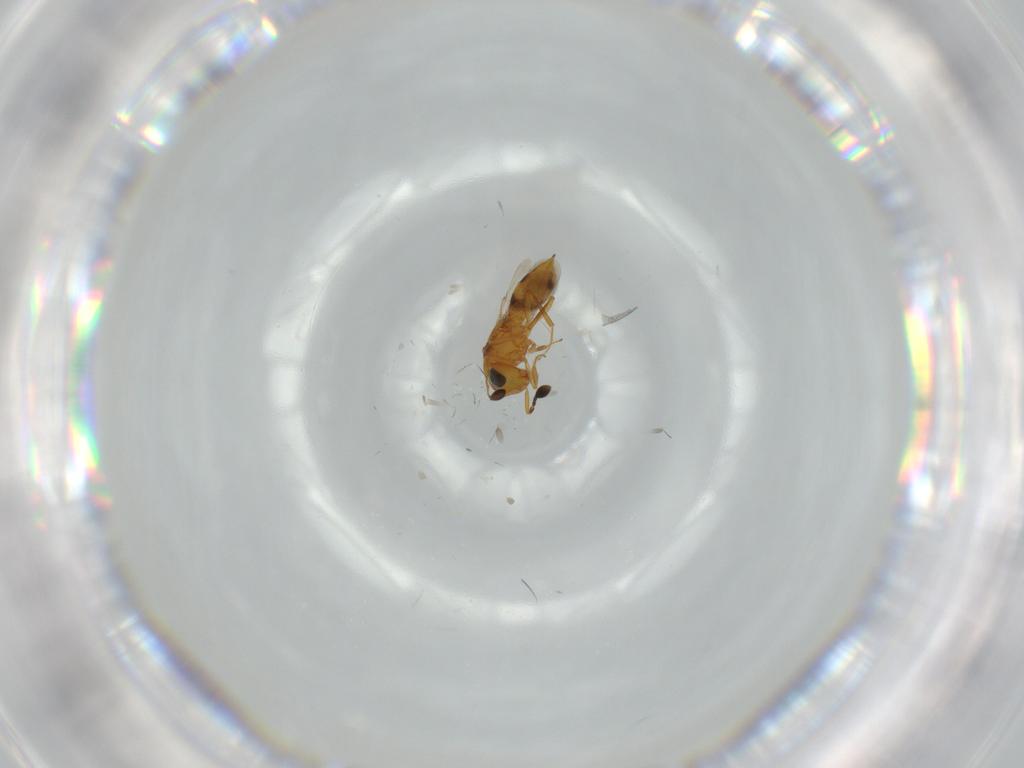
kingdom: Animalia
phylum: Arthropoda
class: Insecta
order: Hymenoptera
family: Scelionidae
